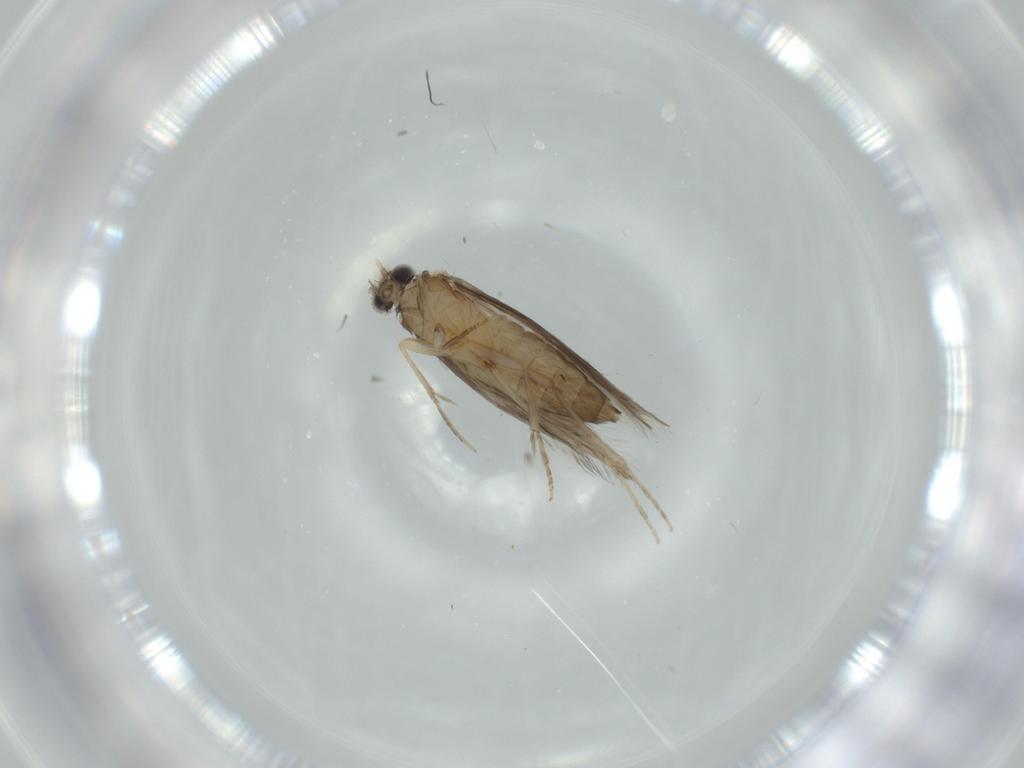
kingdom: Animalia
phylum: Arthropoda
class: Insecta
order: Trichoptera
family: Hydroptilidae
